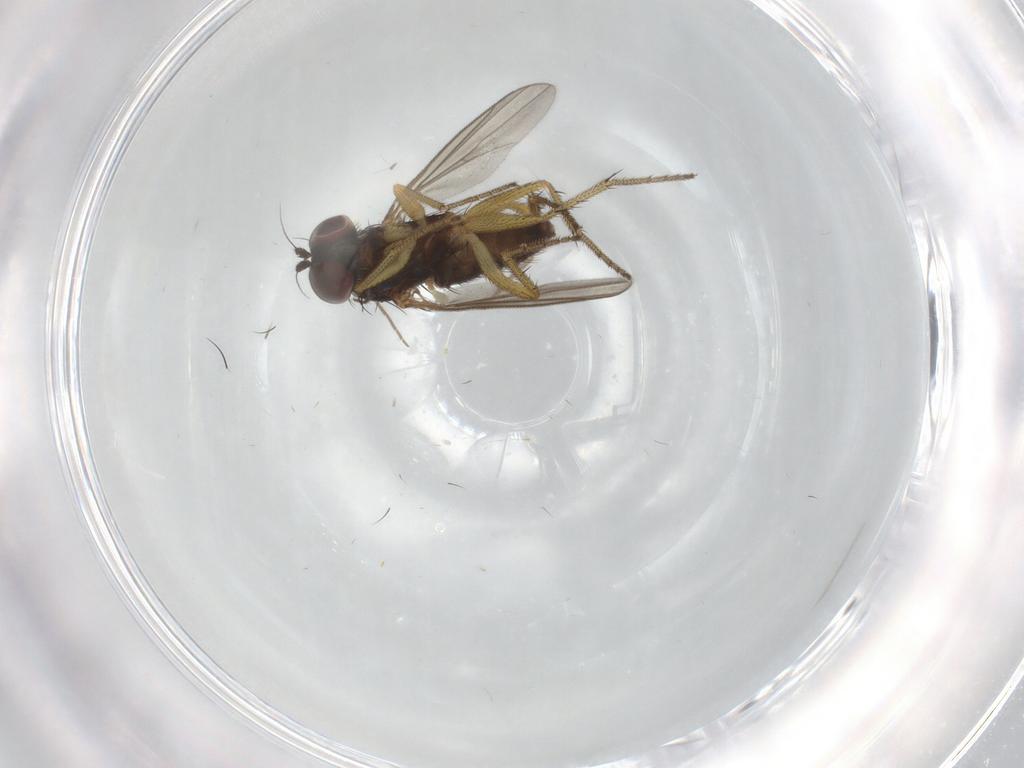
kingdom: Animalia
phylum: Arthropoda
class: Insecta
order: Diptera
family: Chironomidae
